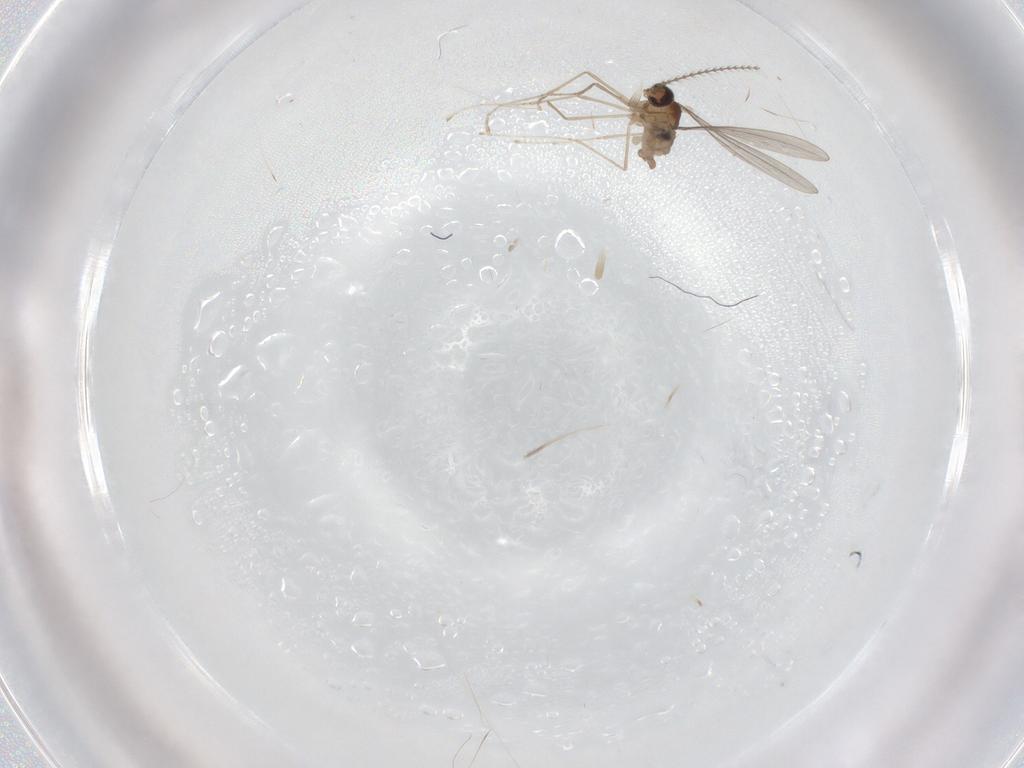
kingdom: Animalia
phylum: Arthropoda
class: Insecta
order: Diptera
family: Cecidomyiidae
